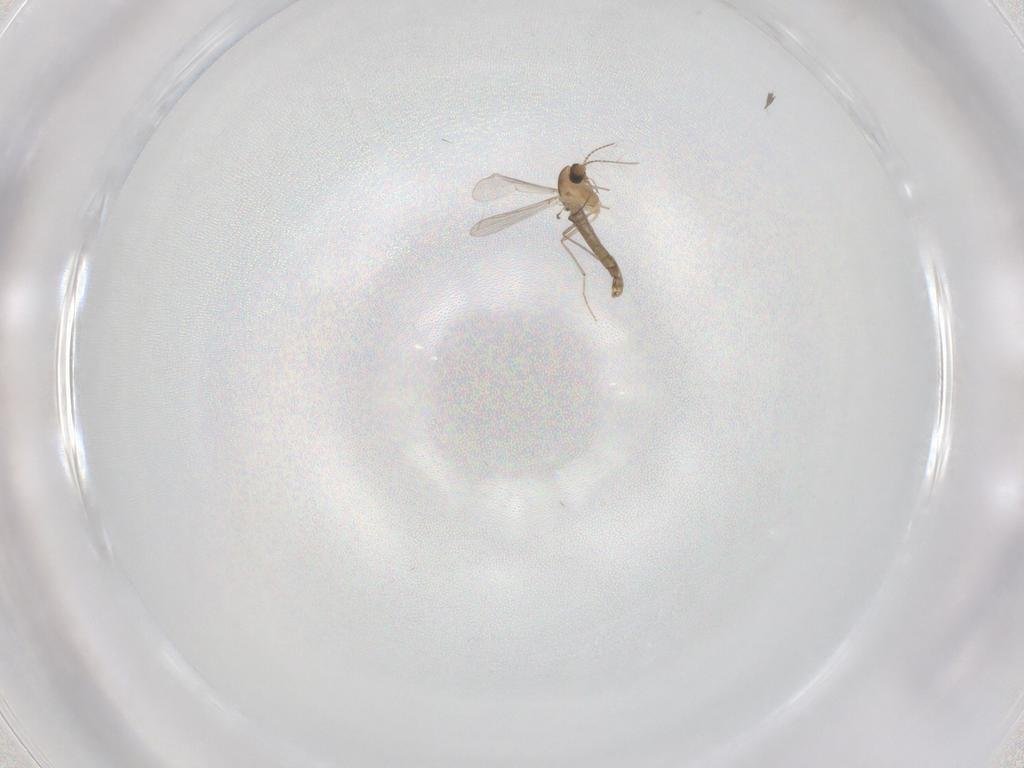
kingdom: Animalia
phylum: Arthropoda
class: Insecta
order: Diptera
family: Chironomidae
